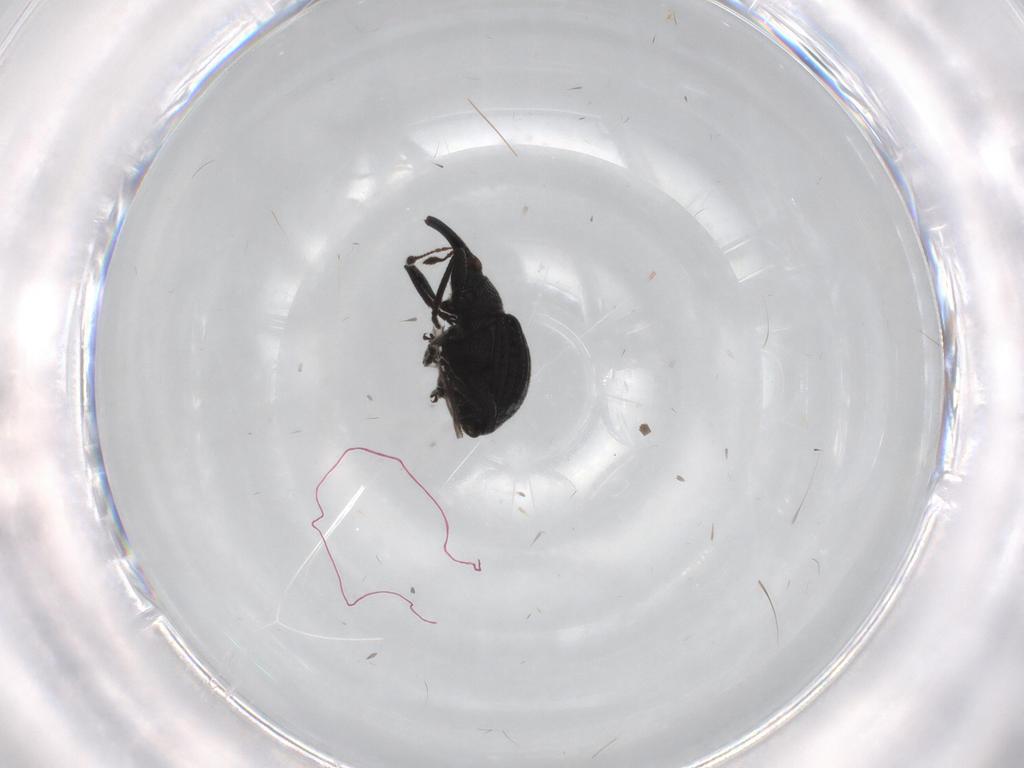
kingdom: Animalia
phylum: Arthropoda
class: Insecta
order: Coleoptera
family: Brentidae
